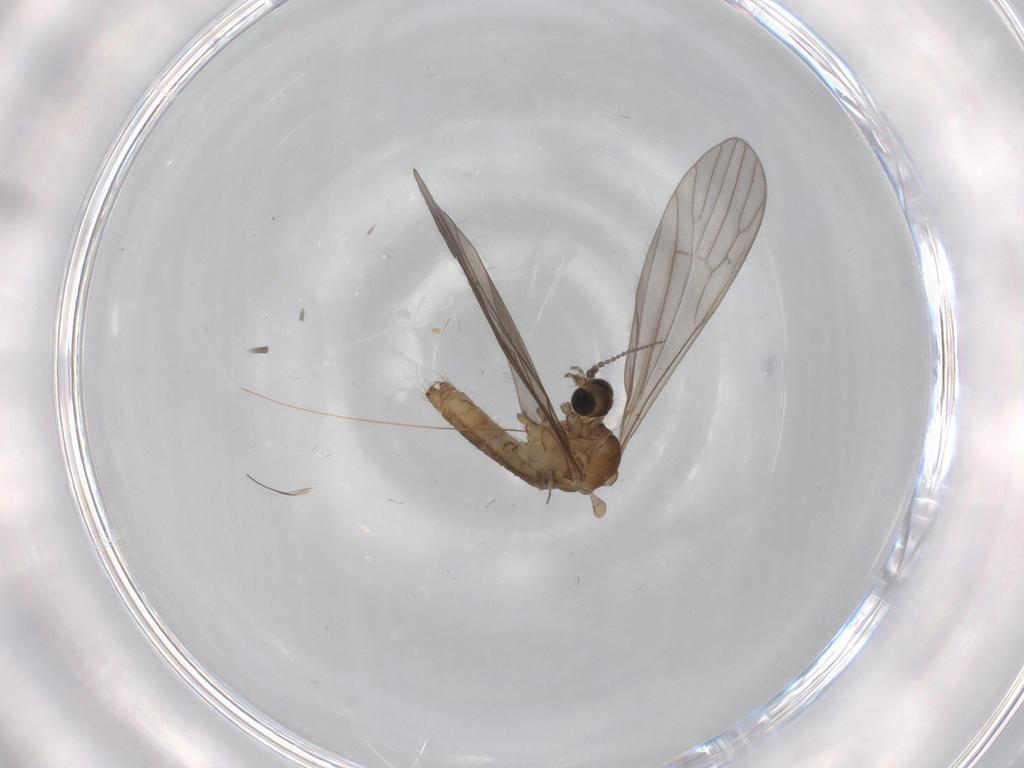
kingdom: Animalia
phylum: Arthropoda
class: Insecta
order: Diptera
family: Limoniidae
